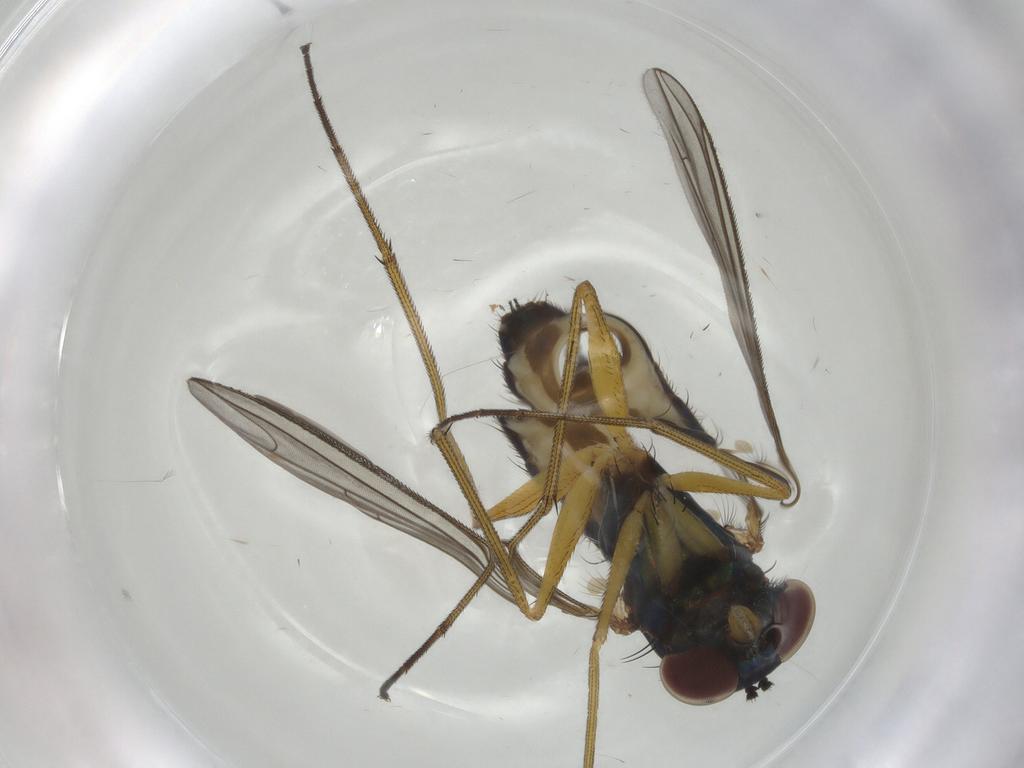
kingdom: Animalia
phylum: Arthropoda
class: Insecta
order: Diptera
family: Dolichopodidae
